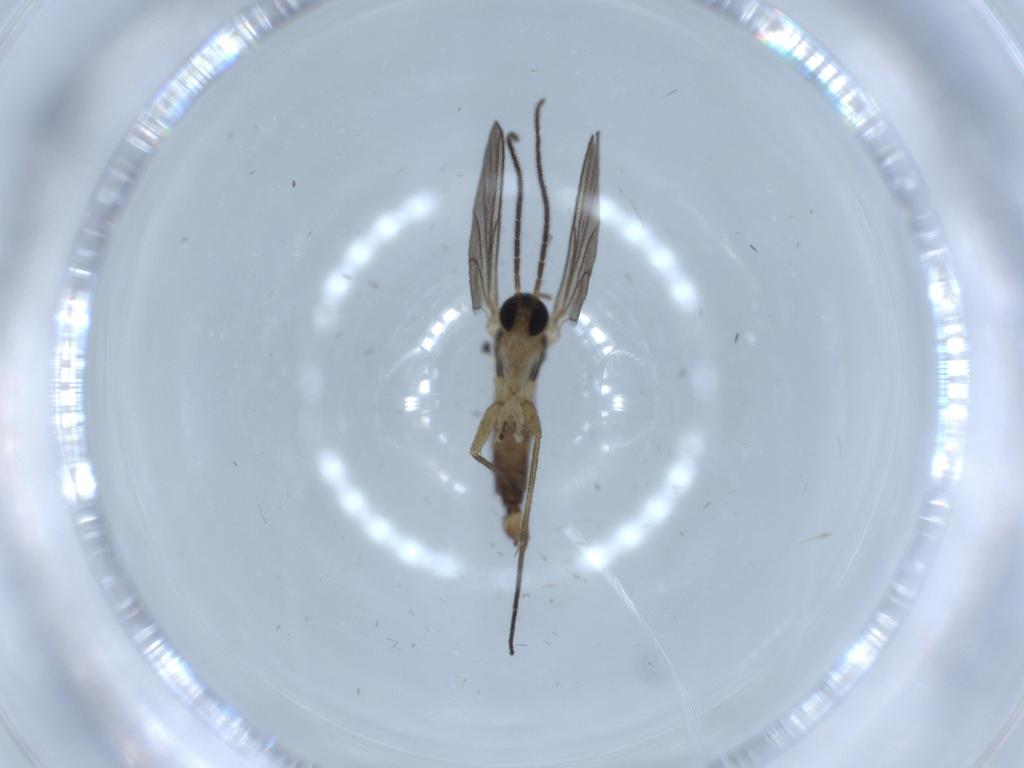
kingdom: Animalia
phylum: Arthropoda
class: Insecta
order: Diptera
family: Sciaridae
